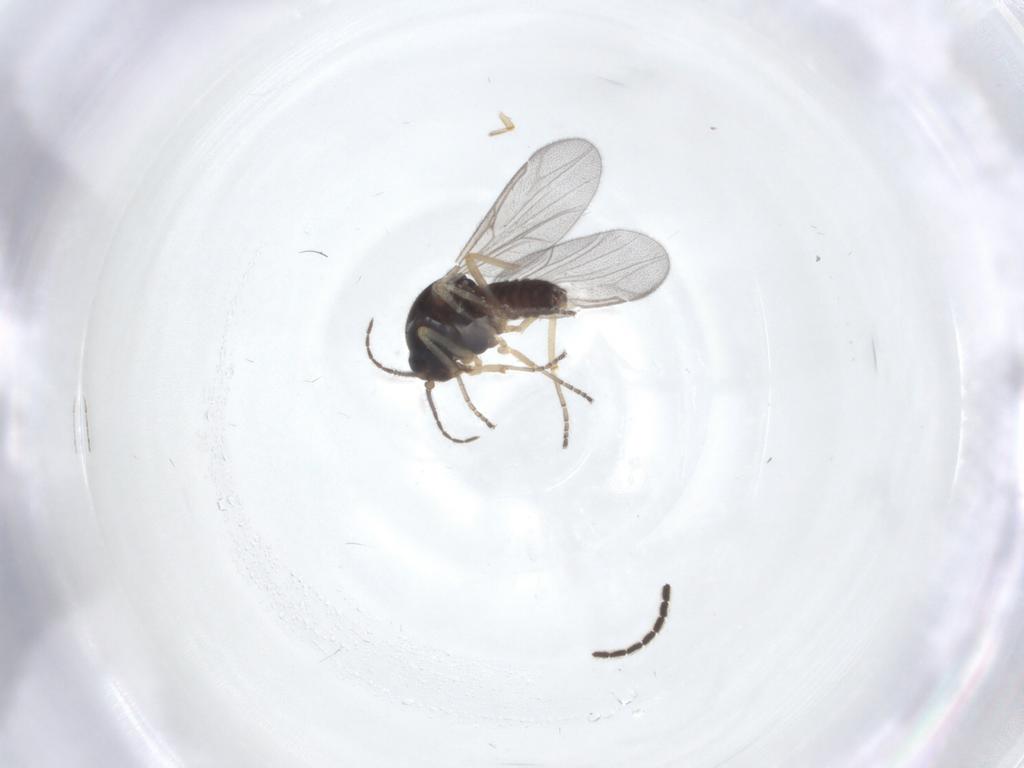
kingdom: Animalia
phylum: Arthropoda
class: Insecta
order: Diptera
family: Ceratopogonidae
